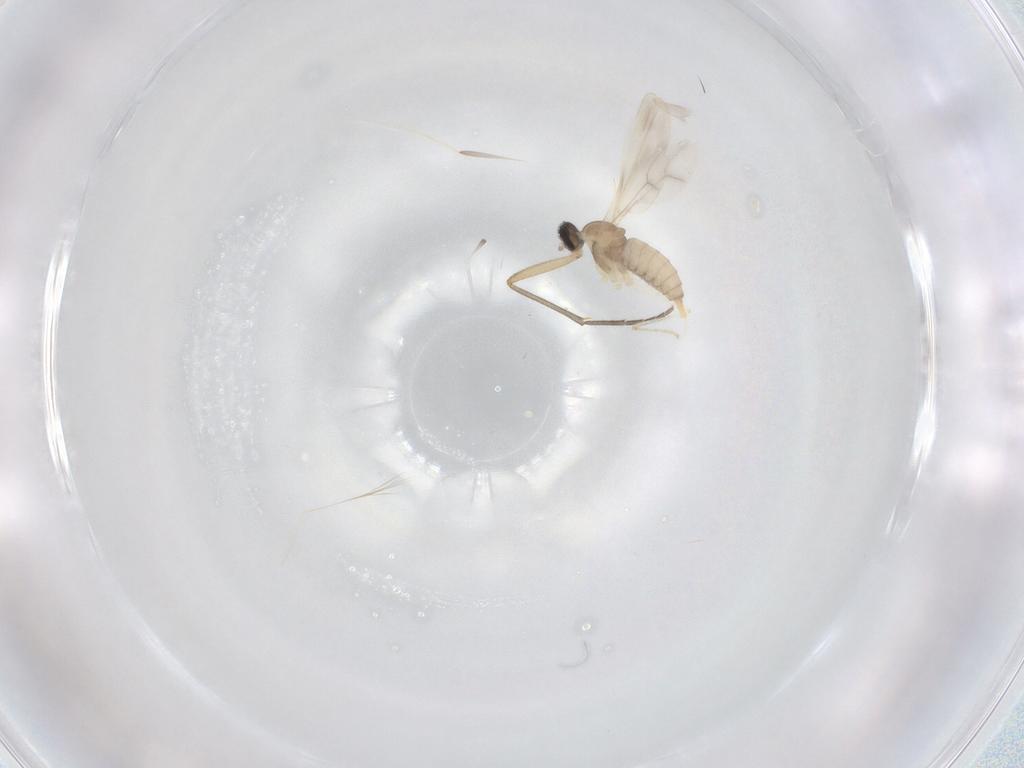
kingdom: Animalia
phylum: Arthropoda
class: Insecta
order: Diptera
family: Cecidomyiidae
